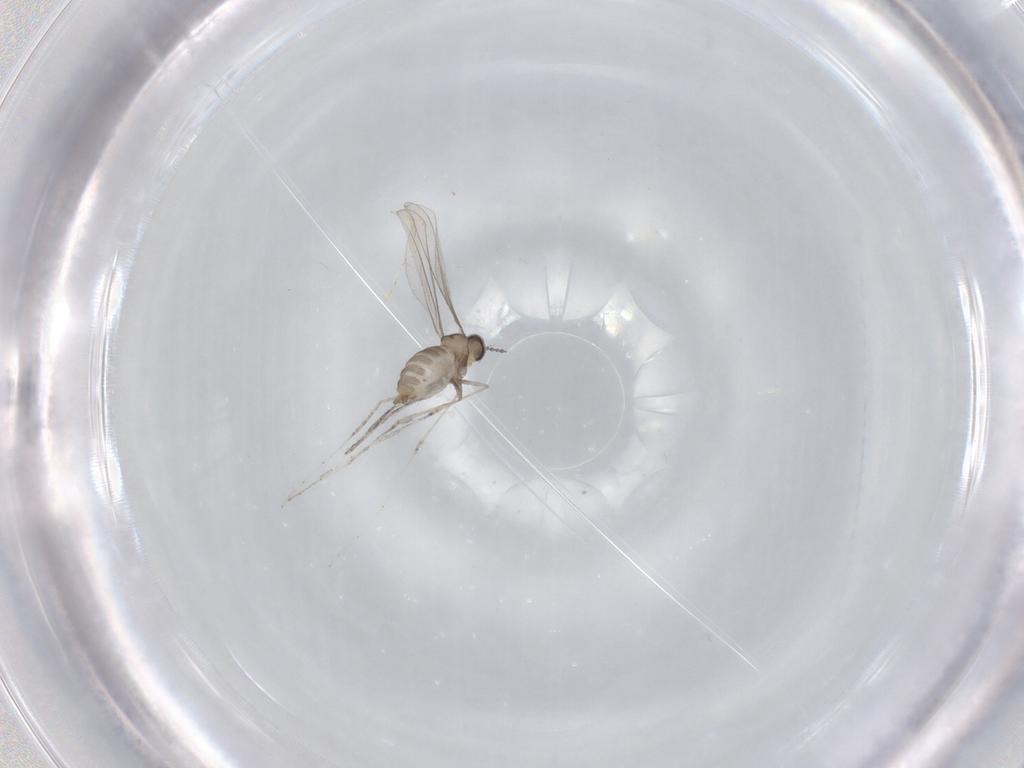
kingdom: Animalia
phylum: Arthropoda
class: Insecta
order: Diptera
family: Cecidomyiidae
